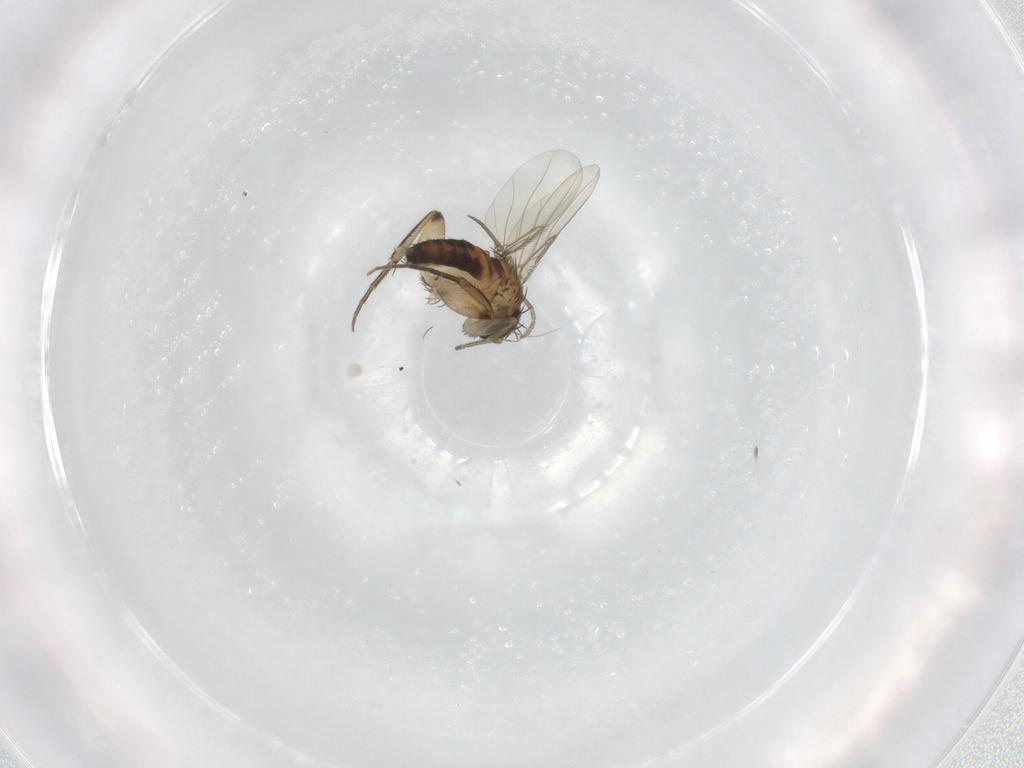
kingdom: Animalia
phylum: Arthropoda
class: Insecta
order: Diptera
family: Phoridae
